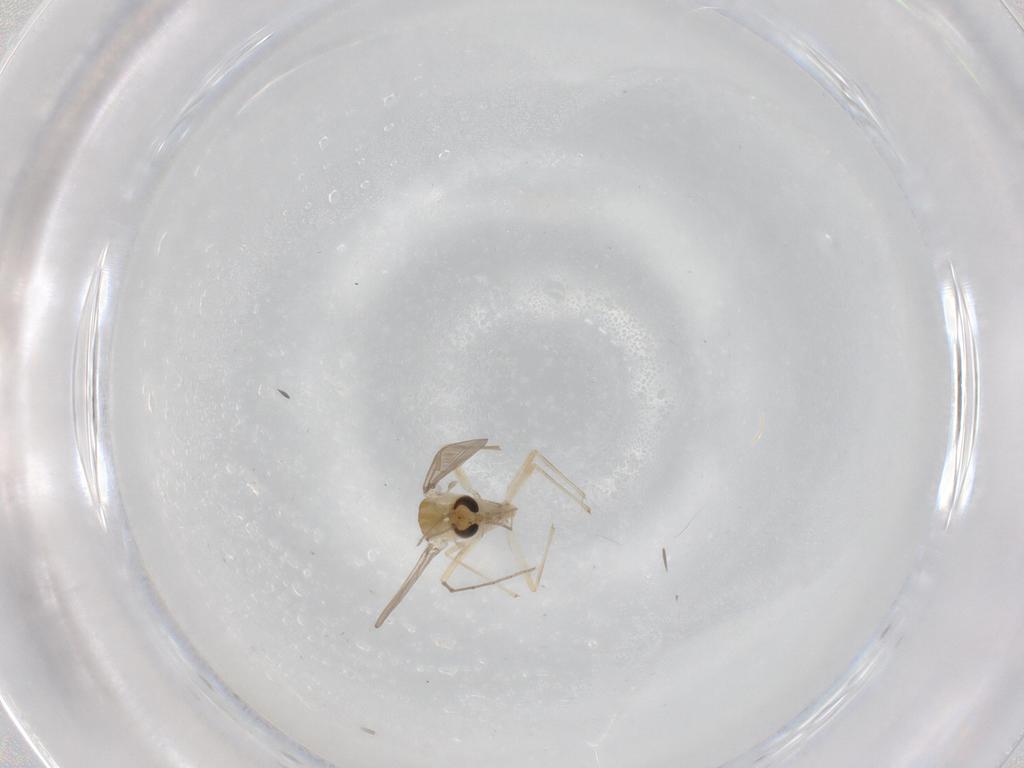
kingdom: Animalia
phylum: Arthropoda
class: Insecta
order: Diptera
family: Chironomidae
